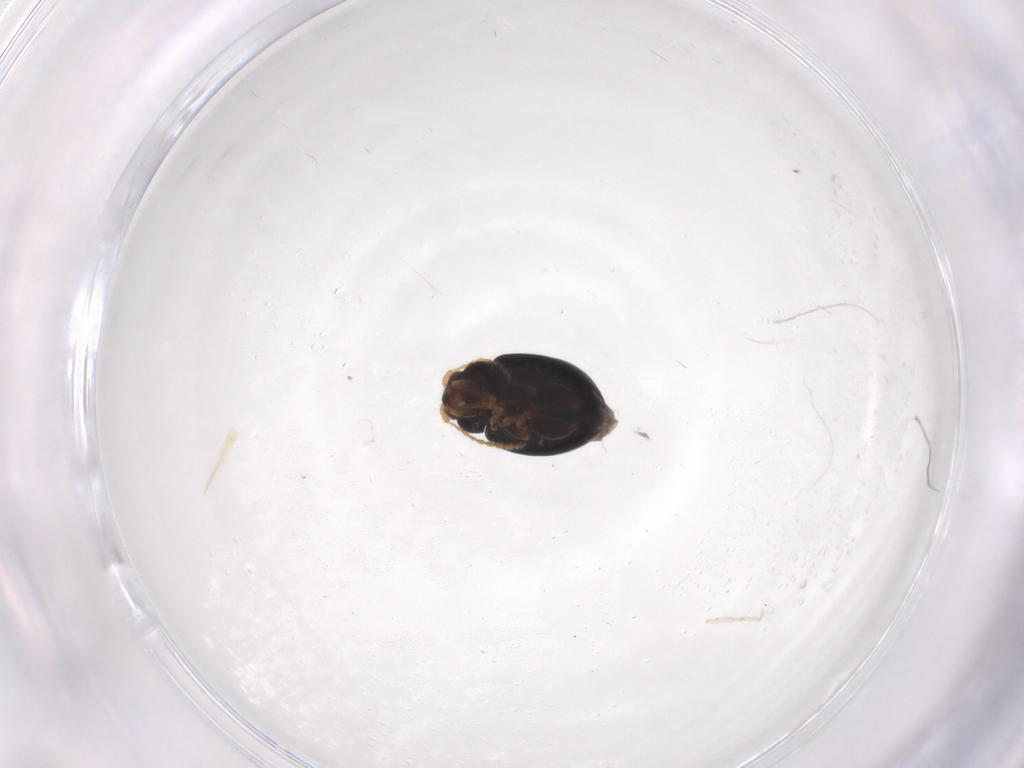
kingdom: Animalia
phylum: Arthropoda
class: Insecta
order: Coleoptera
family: Chrysomelidae
